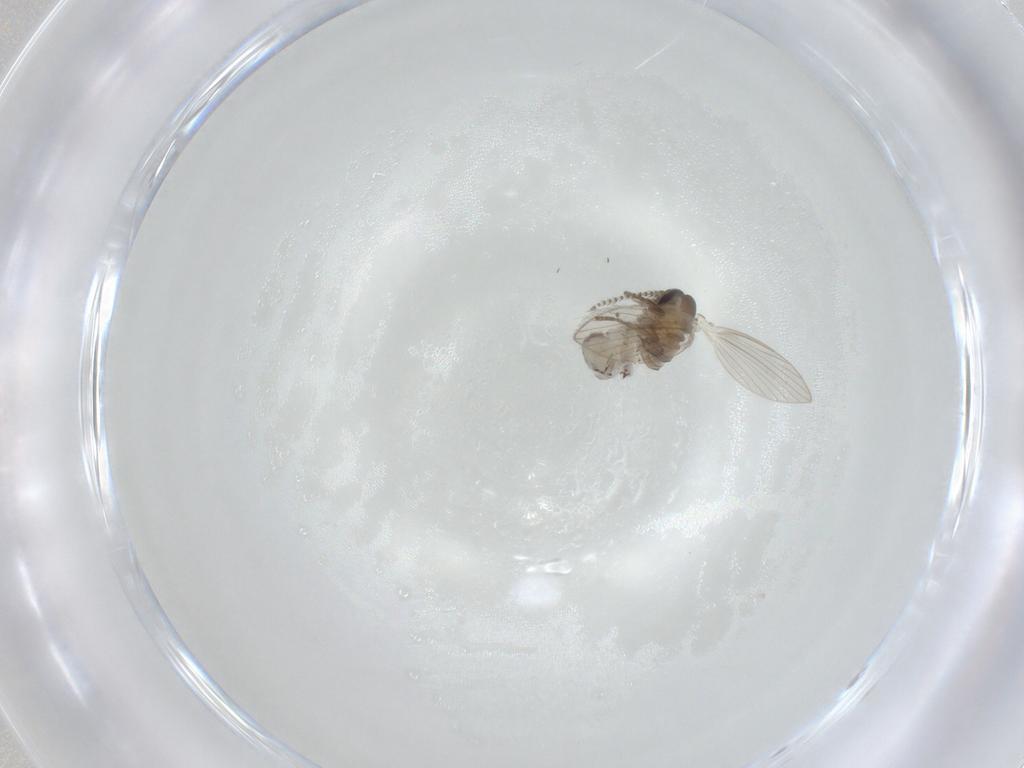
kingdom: Animalia
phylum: Arthropoda
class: Insecta
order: Diptera
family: Psychodidae
